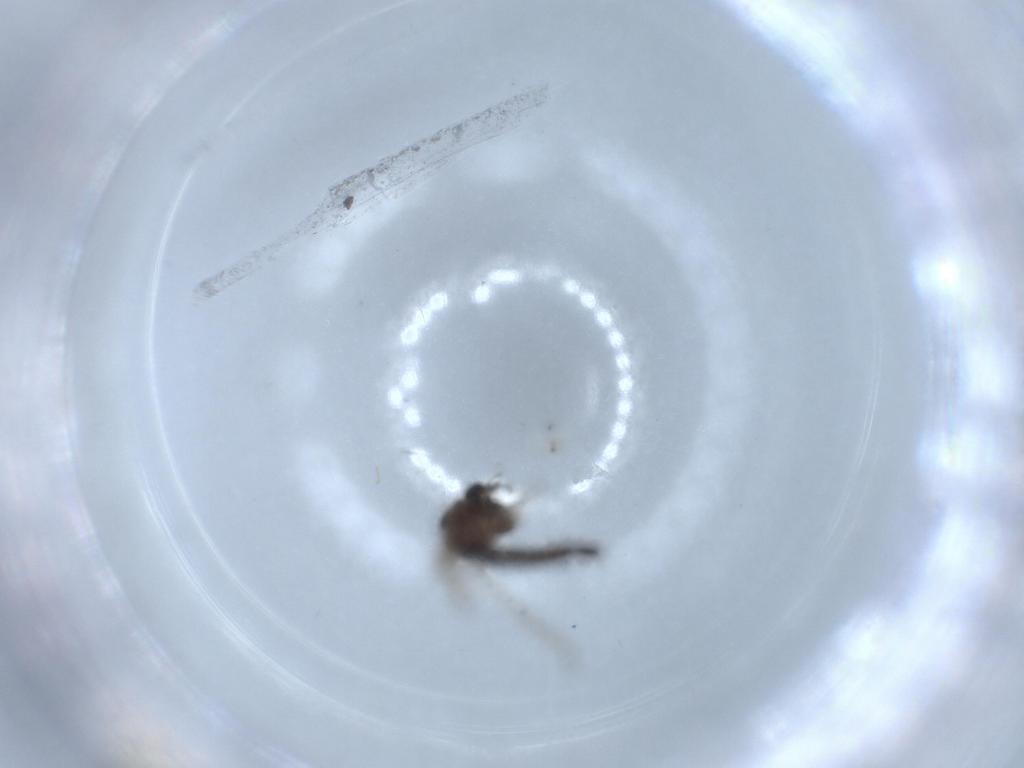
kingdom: Animalia
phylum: Arthropoda
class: Insecta
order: Diptera
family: Chironomidae
